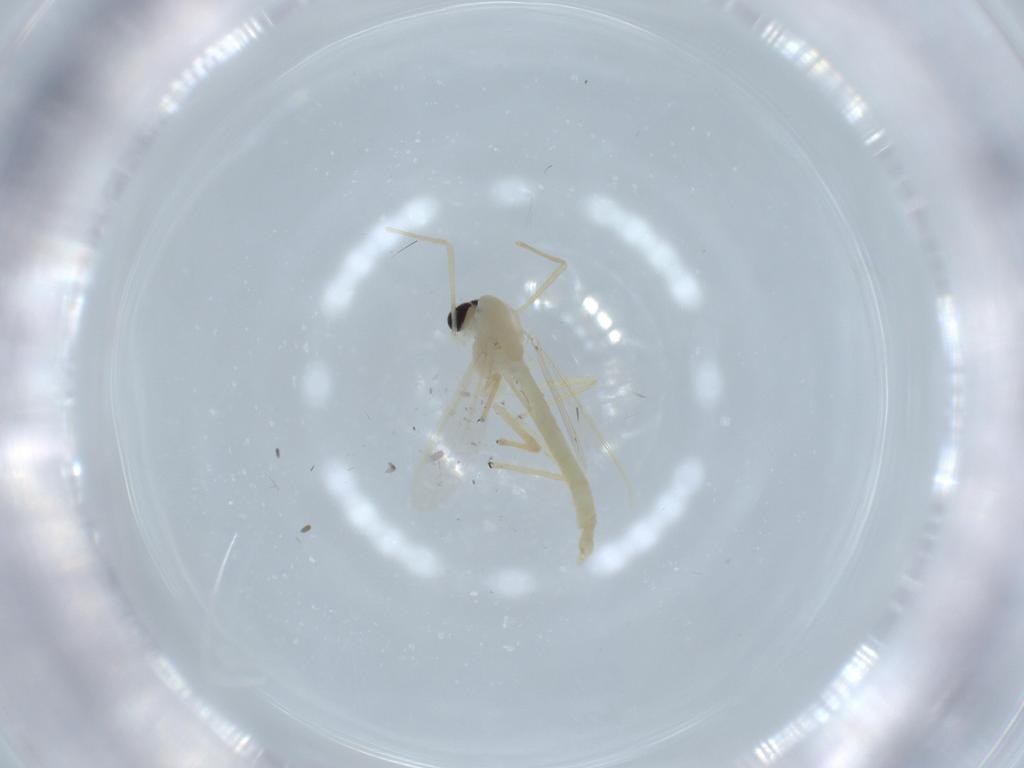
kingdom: Animalia
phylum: Arthropoda
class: Insecta
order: Diptera
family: Chironomidae
